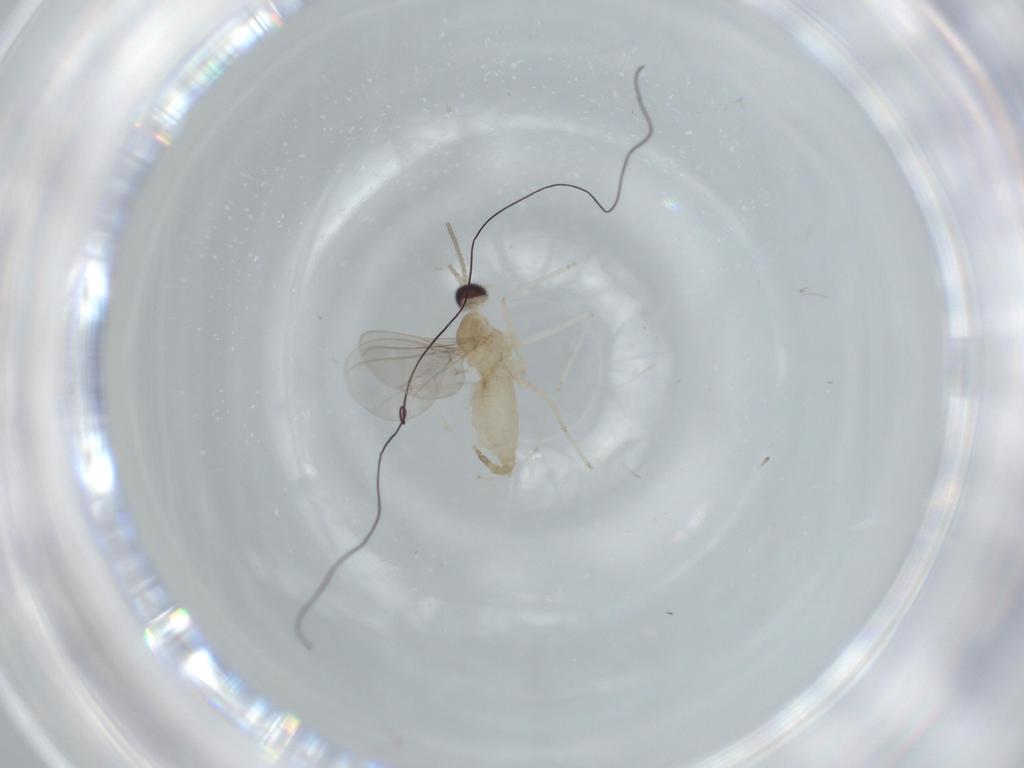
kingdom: Animalia
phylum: Arthropoda
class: Insecta
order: Diptera
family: Cecidomyiidae
